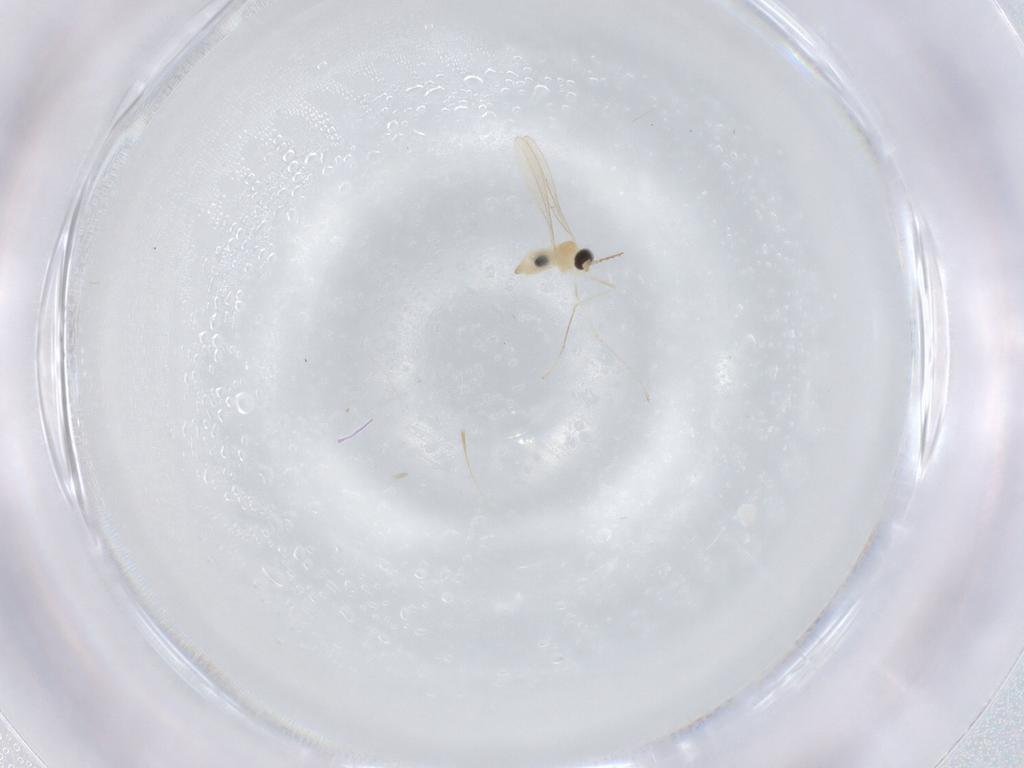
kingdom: Animalia
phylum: Arthropoda
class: Insecta
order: Diptera
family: Cecidomyiidae
